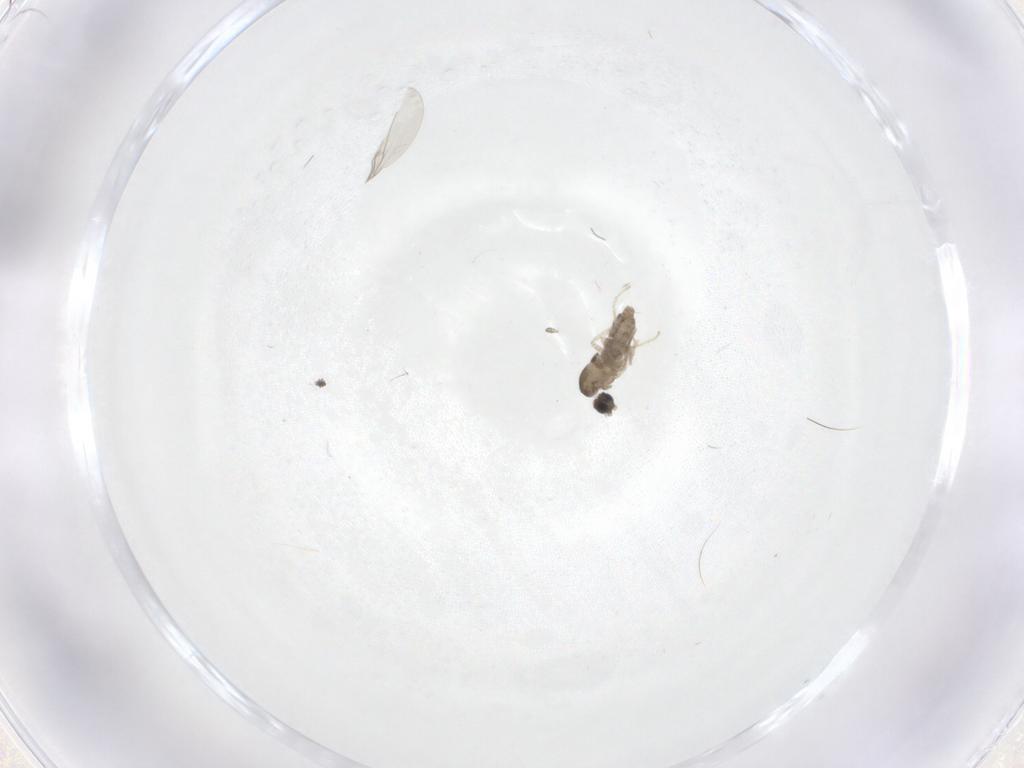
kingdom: Animalia
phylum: Arthropoda
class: Insecta
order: Diptera
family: Cecidomyiidae
